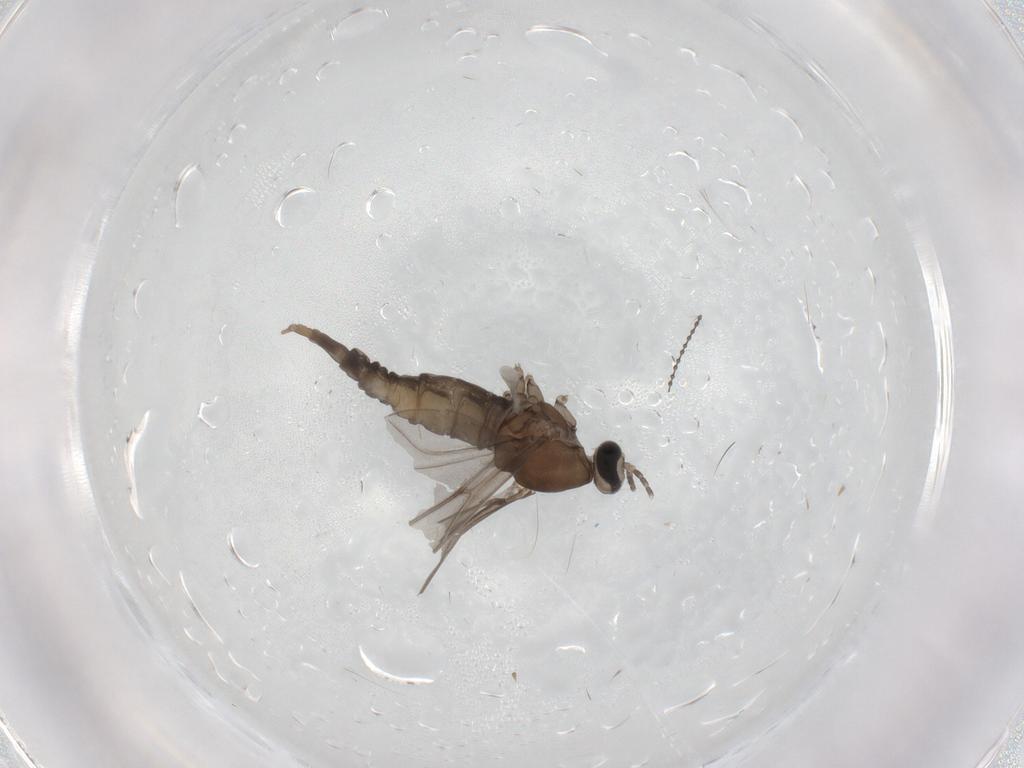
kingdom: Animalia
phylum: Arthropoda
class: Insecta
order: Diptera
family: Cecidomyiidae
